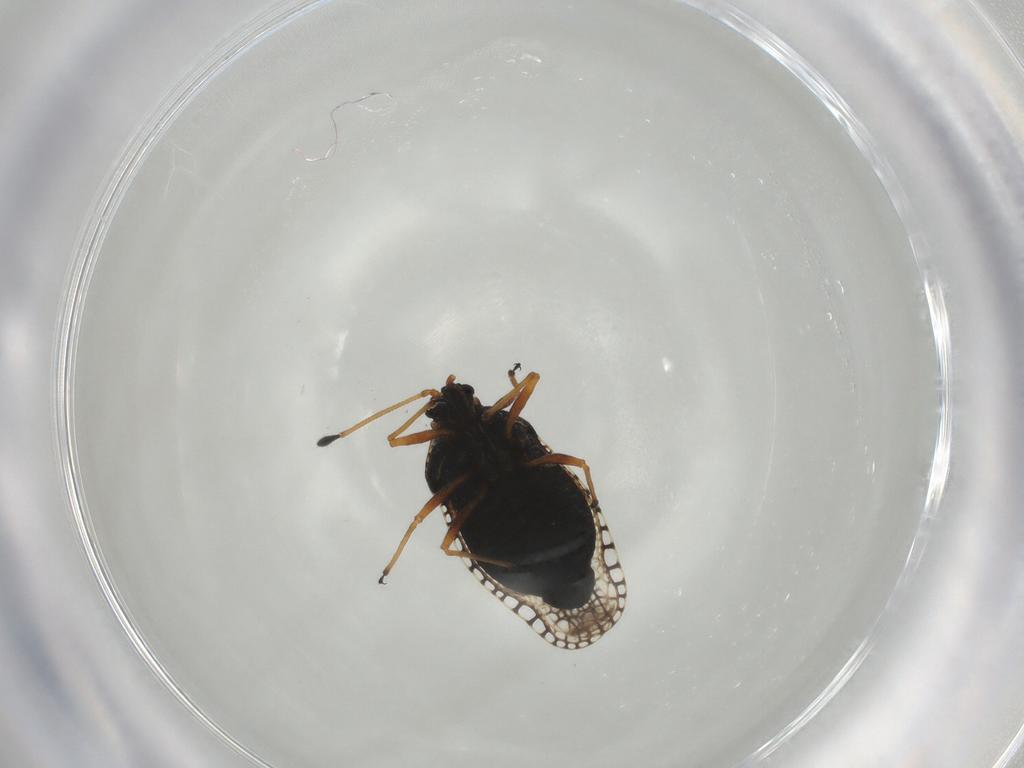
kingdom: Animalia
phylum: Arthropoda
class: Insecta
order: Hemiptera
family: Tingidae
